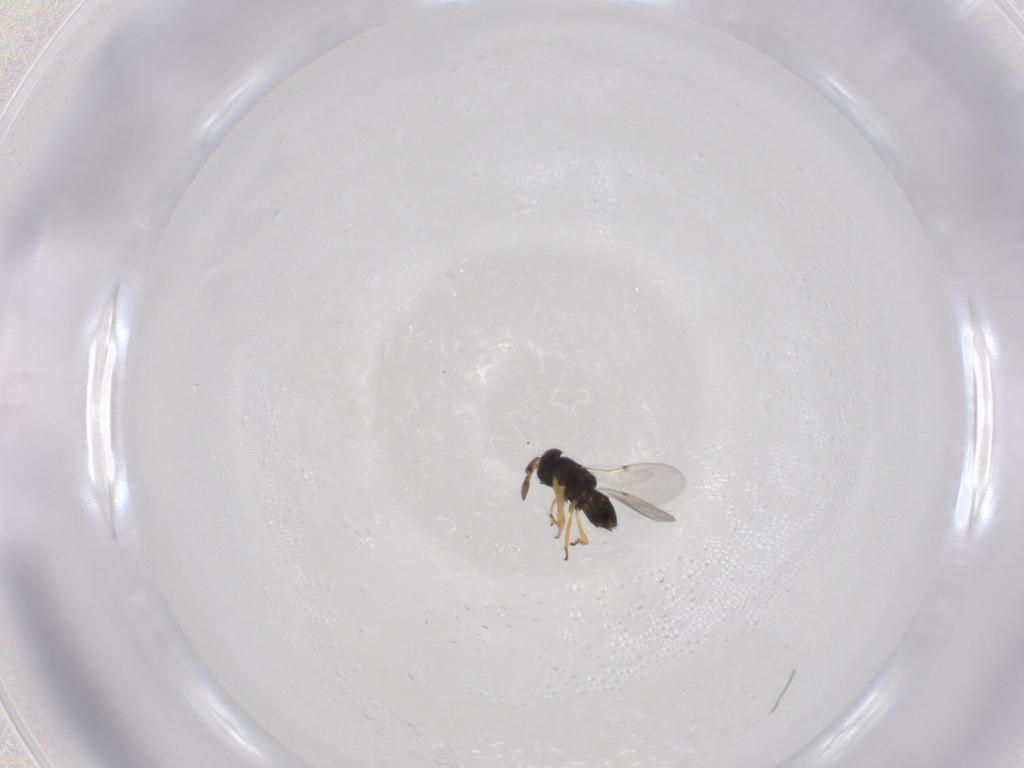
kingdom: Animalia
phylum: Arthropoda
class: Insecta
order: Hymenoptera
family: Encyrtidae
